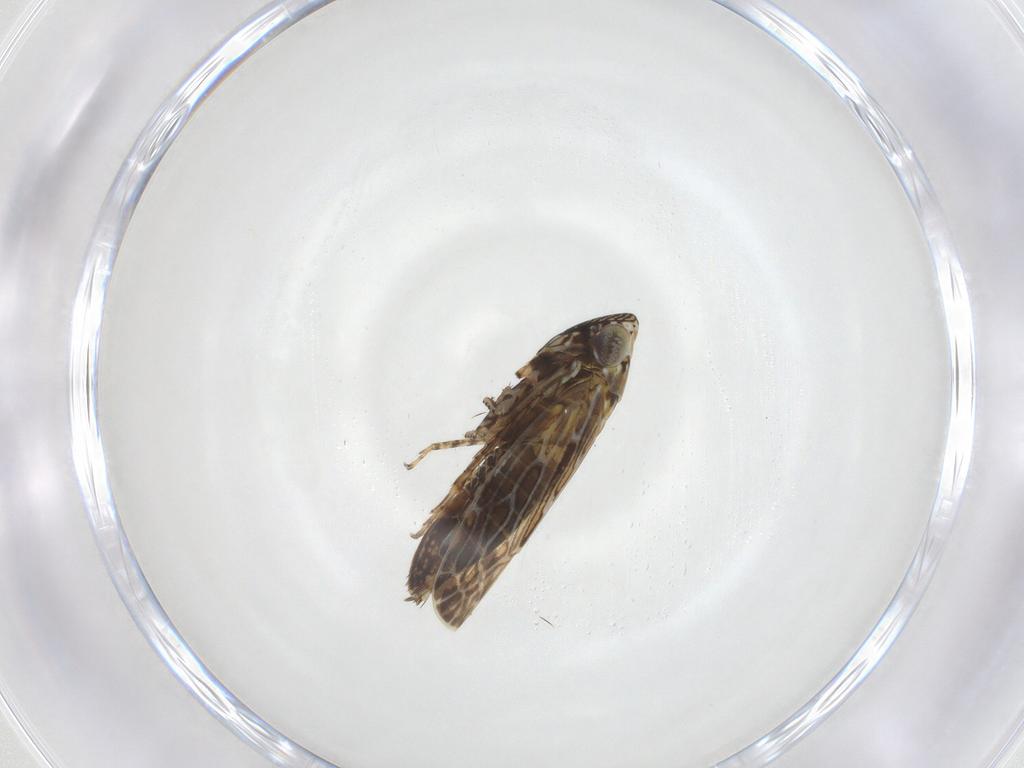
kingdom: Animalia
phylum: Arthropoda
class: Insecta
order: Hemiptera
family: Cicadellidae
